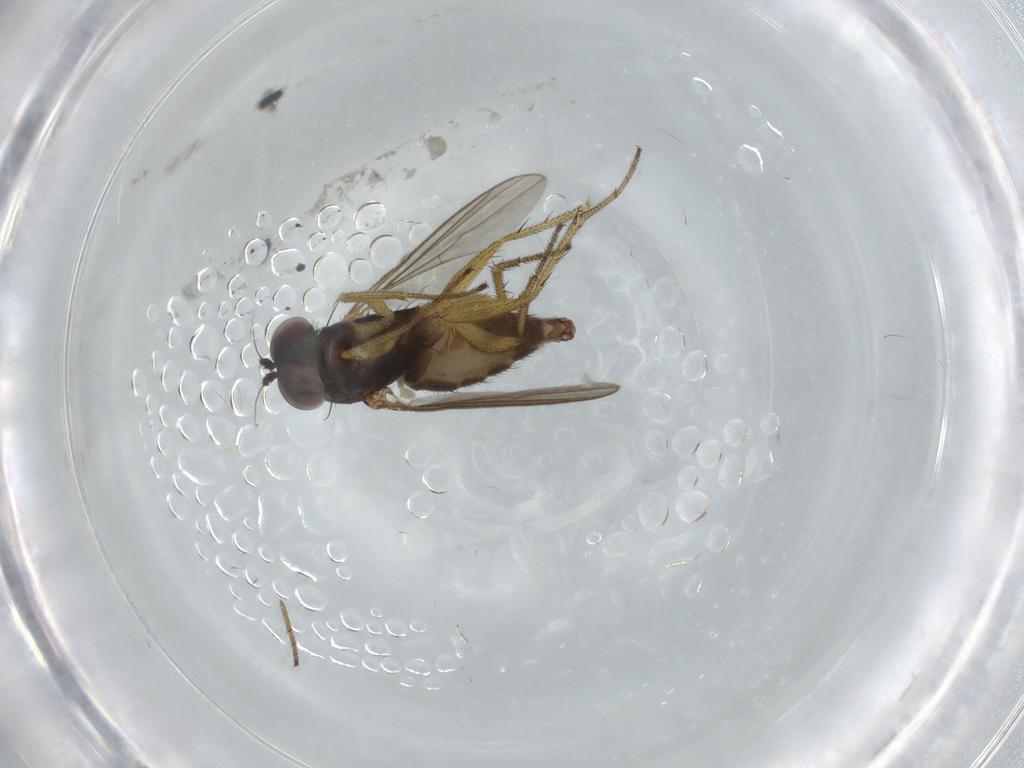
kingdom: Animalia
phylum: Arthropoda
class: Insecta
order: Diptera
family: Dolichopodidae
